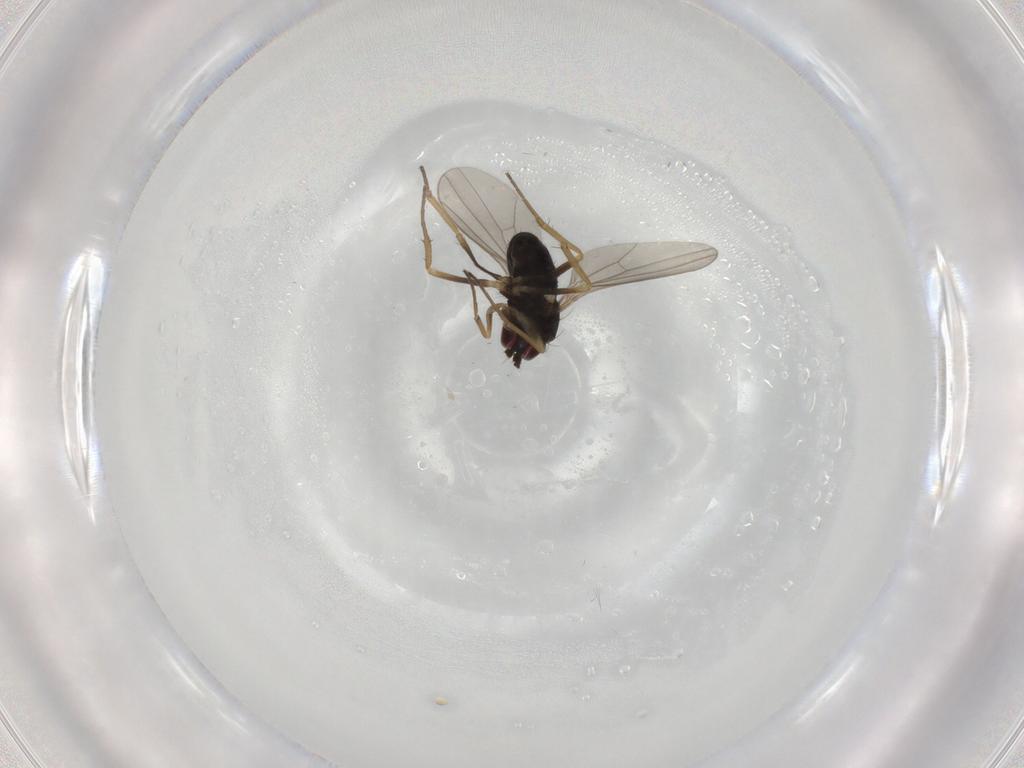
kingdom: Animalia
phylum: Arthropoda
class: Insecta
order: Diptera
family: Dolichopodidae
